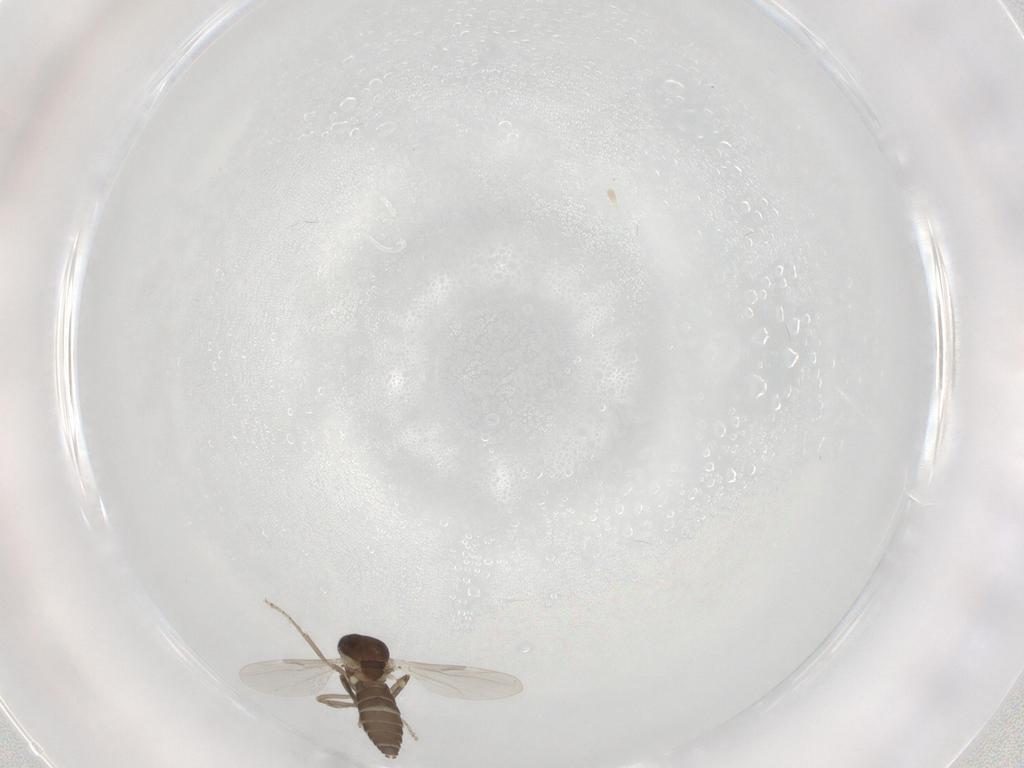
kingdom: Animalia
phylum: Arthropoda
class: Insecta
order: Diptera
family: Ceratopogonidae
